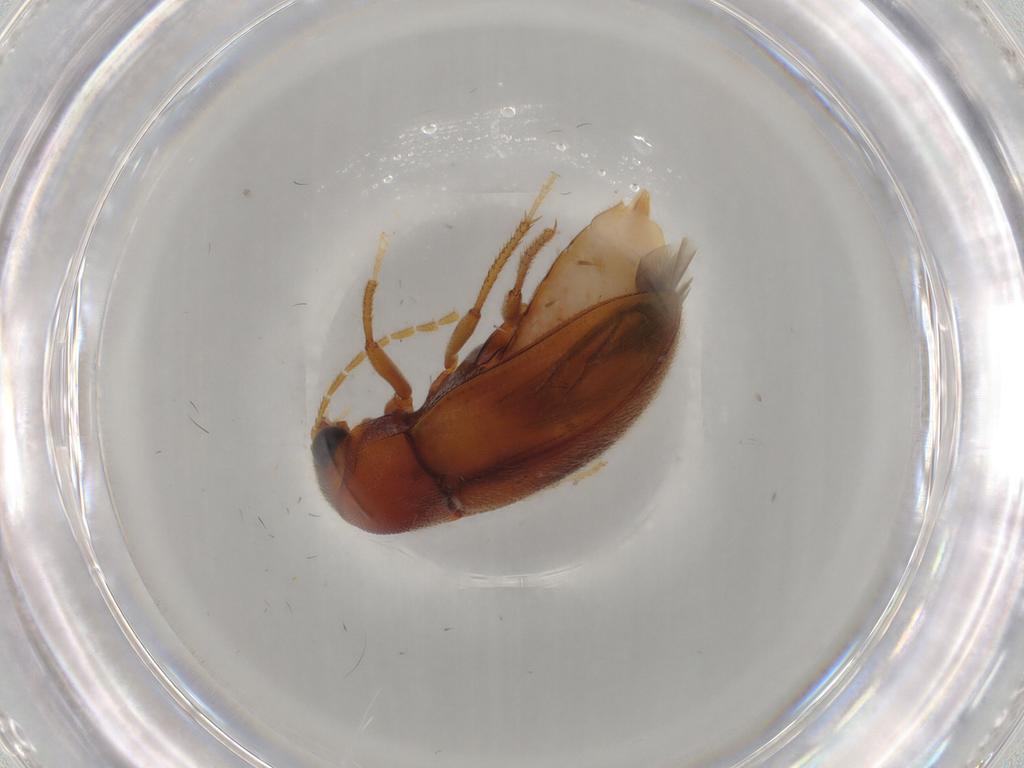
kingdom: Animalia
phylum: Arthropoda
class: Insecta
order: Coleoptera
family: Ptilodactylidae
